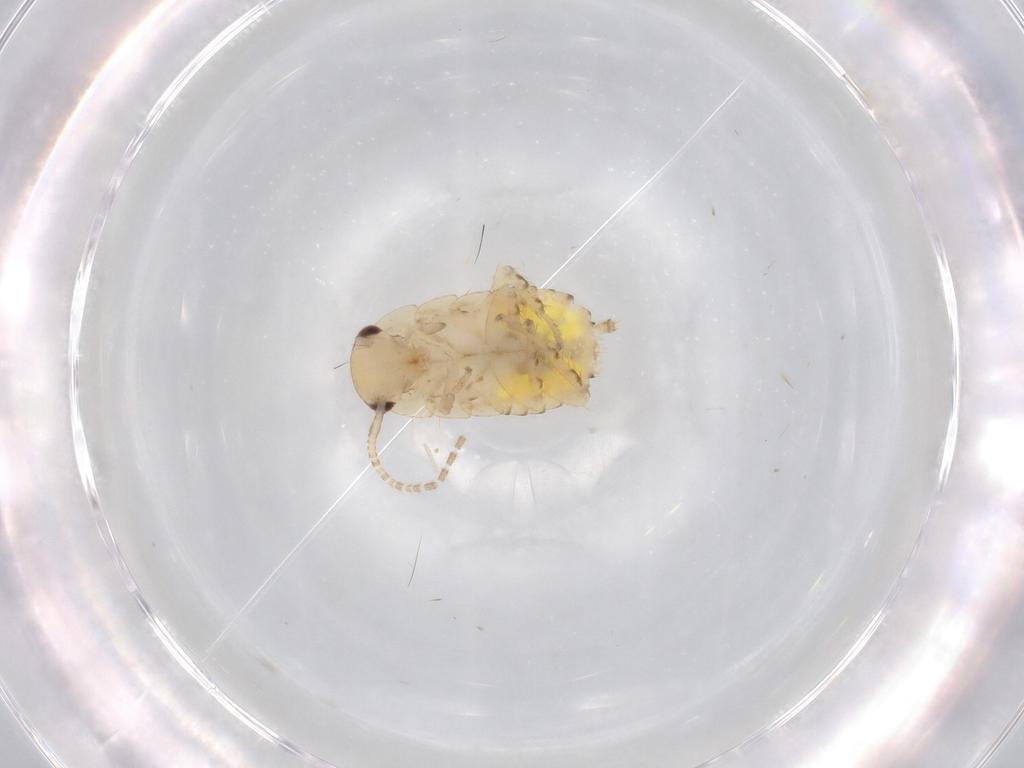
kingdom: Animalia
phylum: Arthropoda
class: Insecta
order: Blattodea
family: Ectobiidae
